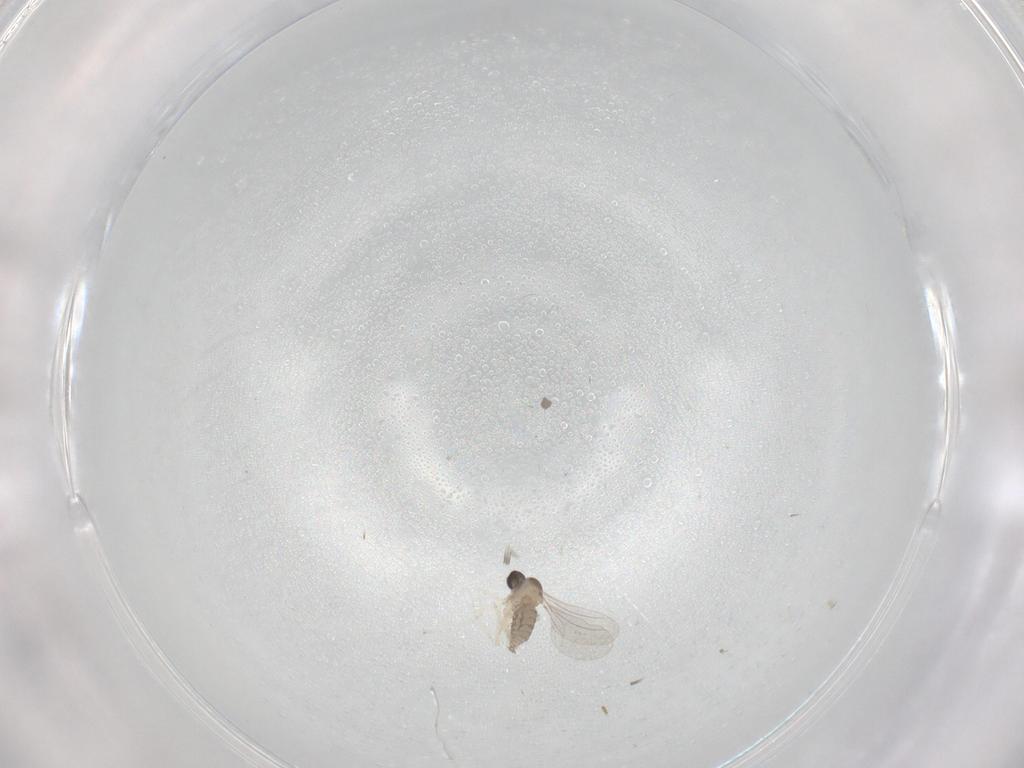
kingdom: Animalia
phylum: Arthropoda
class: Insecta
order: Diptera
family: Cecidomyiidae
